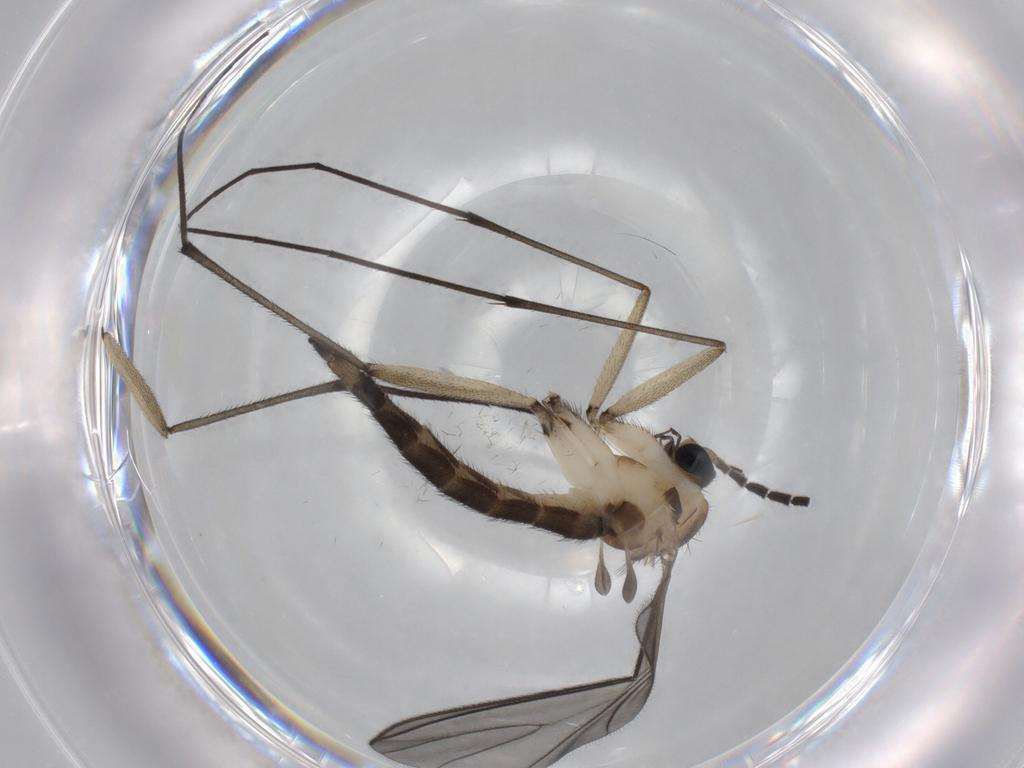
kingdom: Animalia
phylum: Arthropoda
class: Insecta
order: Diptera
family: Sciaridae
